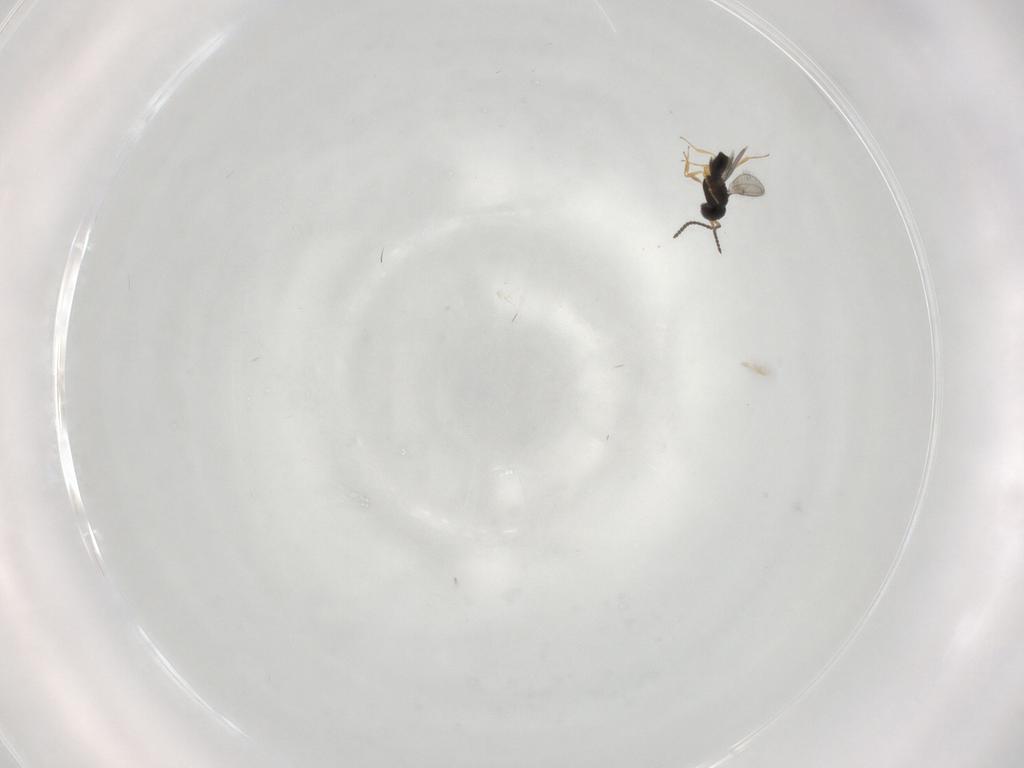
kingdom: Animalia
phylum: Arthropoda
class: Insecta
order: Hymenoptera
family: Scelionidae
